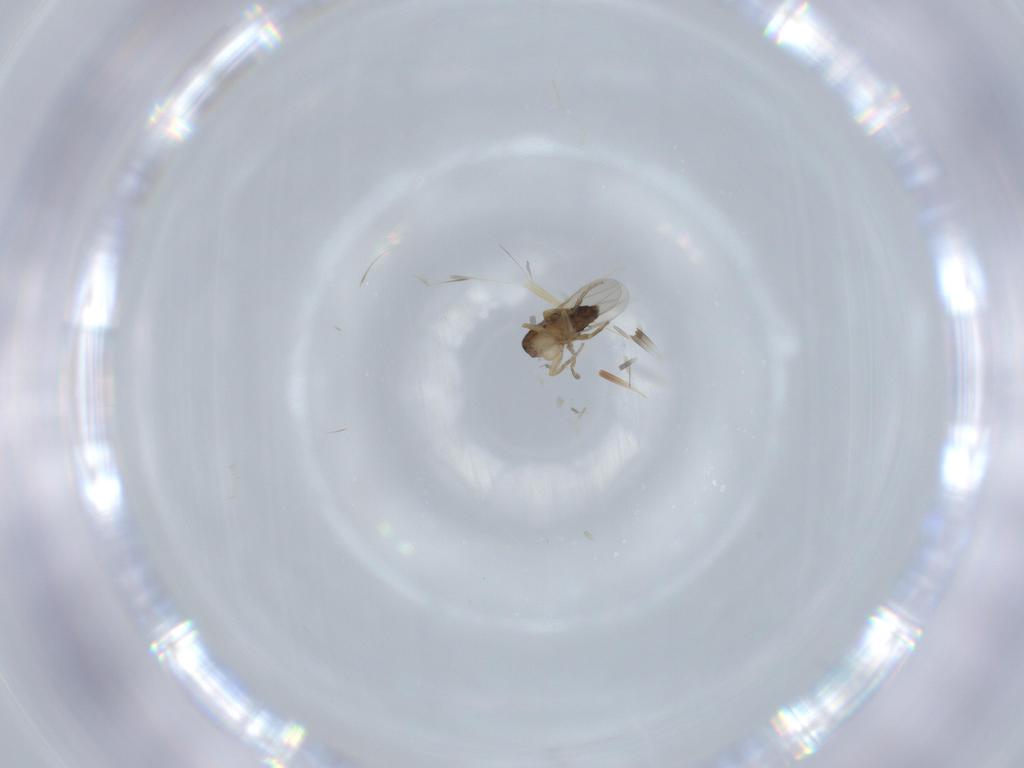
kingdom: Animalia
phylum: Arthropoda
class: Insecta
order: Diptera
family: Phoridae
